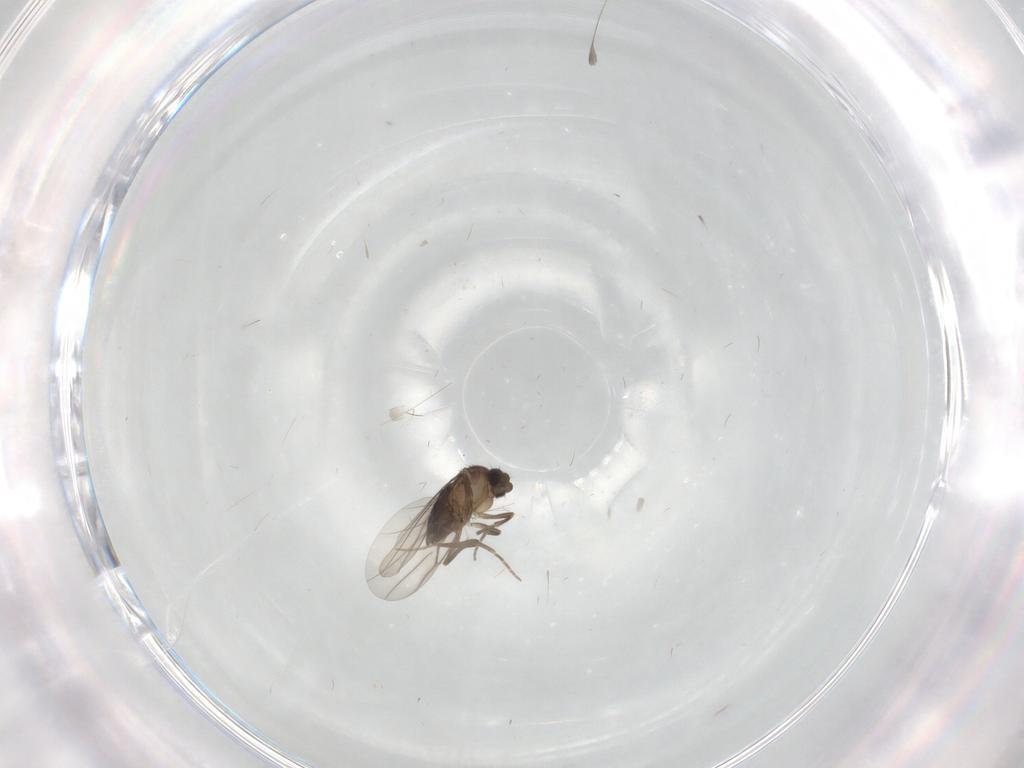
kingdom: Animalia
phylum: Arthropoda
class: Insecta
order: Diptera
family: Phoridae
